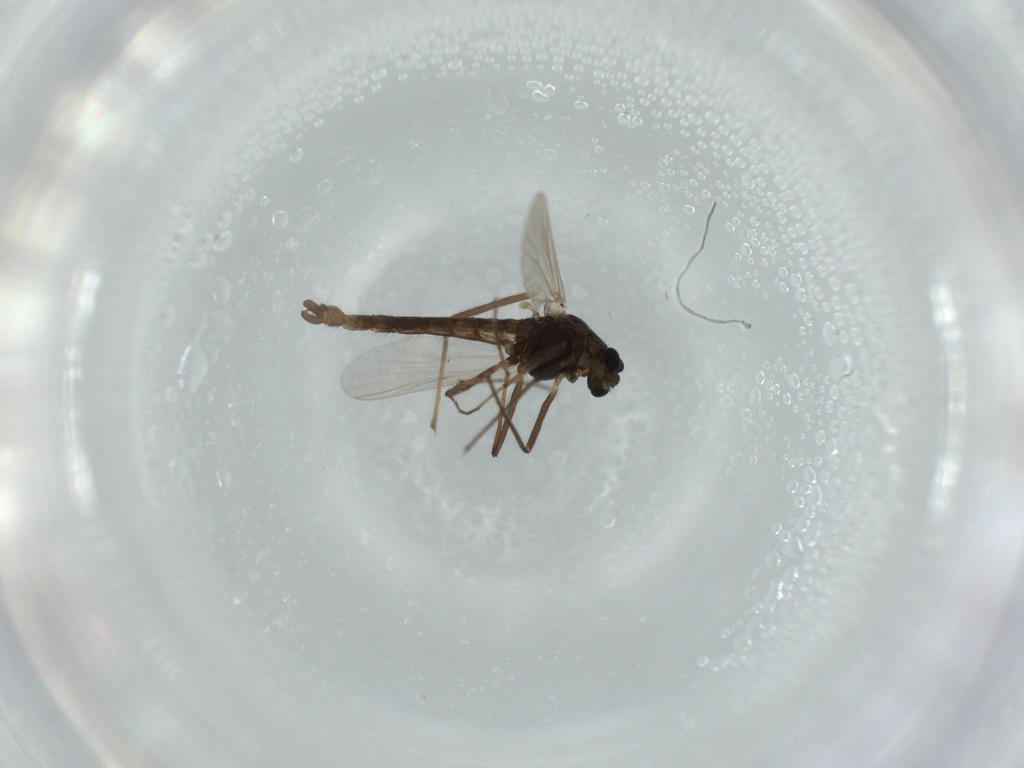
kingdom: Animalia
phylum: Arthropoda
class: Insecta
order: Diptera
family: Chironomidae
